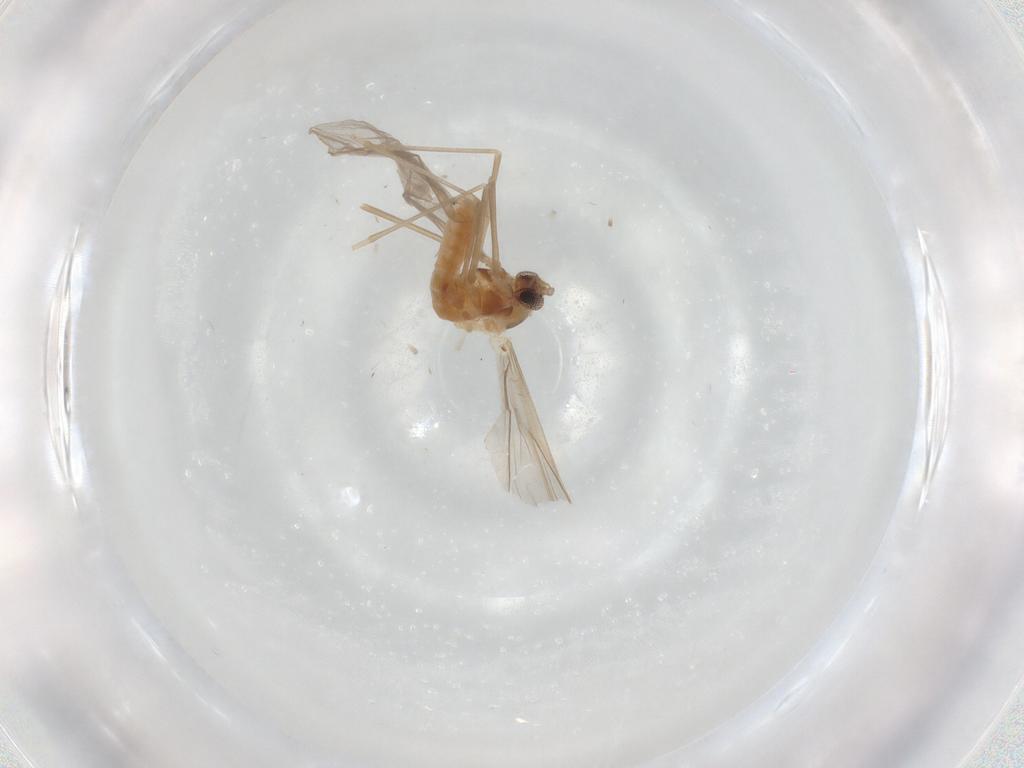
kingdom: Animalia
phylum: Arthropoda
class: Insecta
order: Diptera
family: Cecidomyiidae
